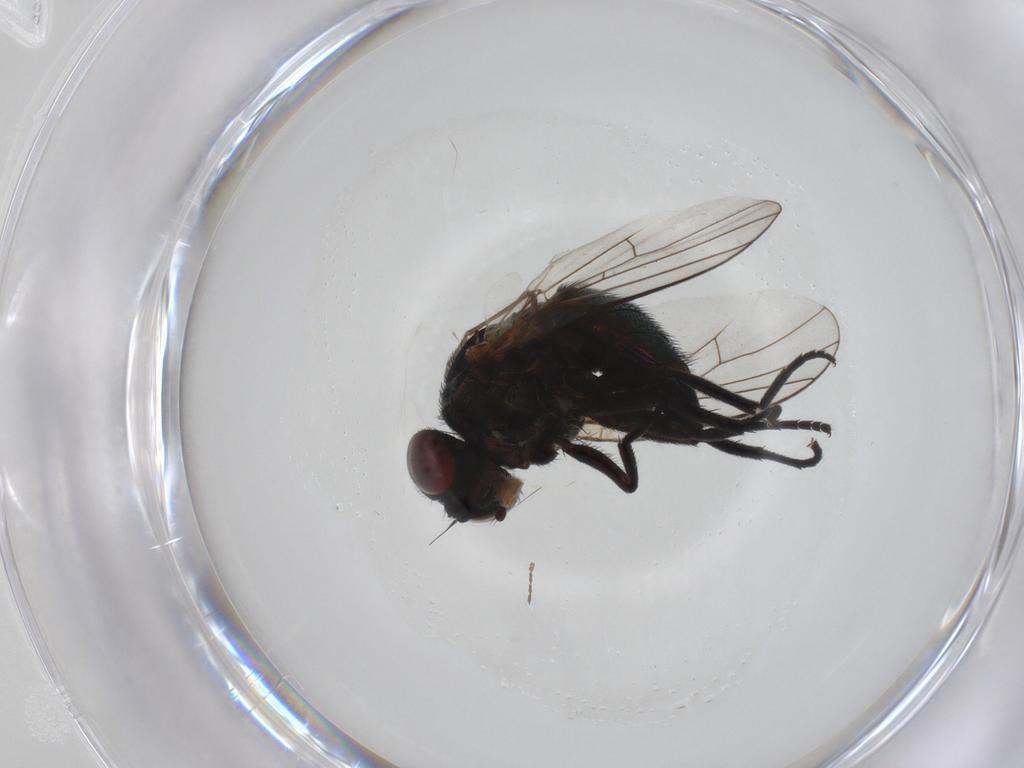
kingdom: Animalia
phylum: Arthropoda
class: Insecta
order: Diptera
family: Agromyzidae
